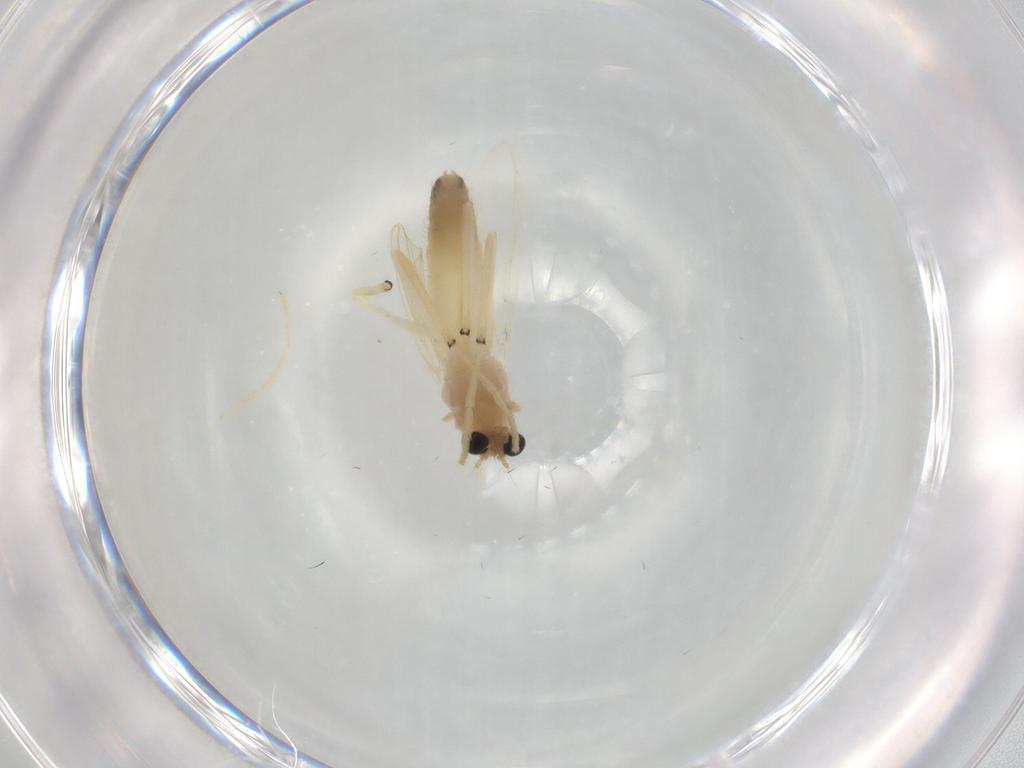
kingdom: Animalia
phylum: Arthropoda
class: Insecta
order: Diptera
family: Chironomidae
